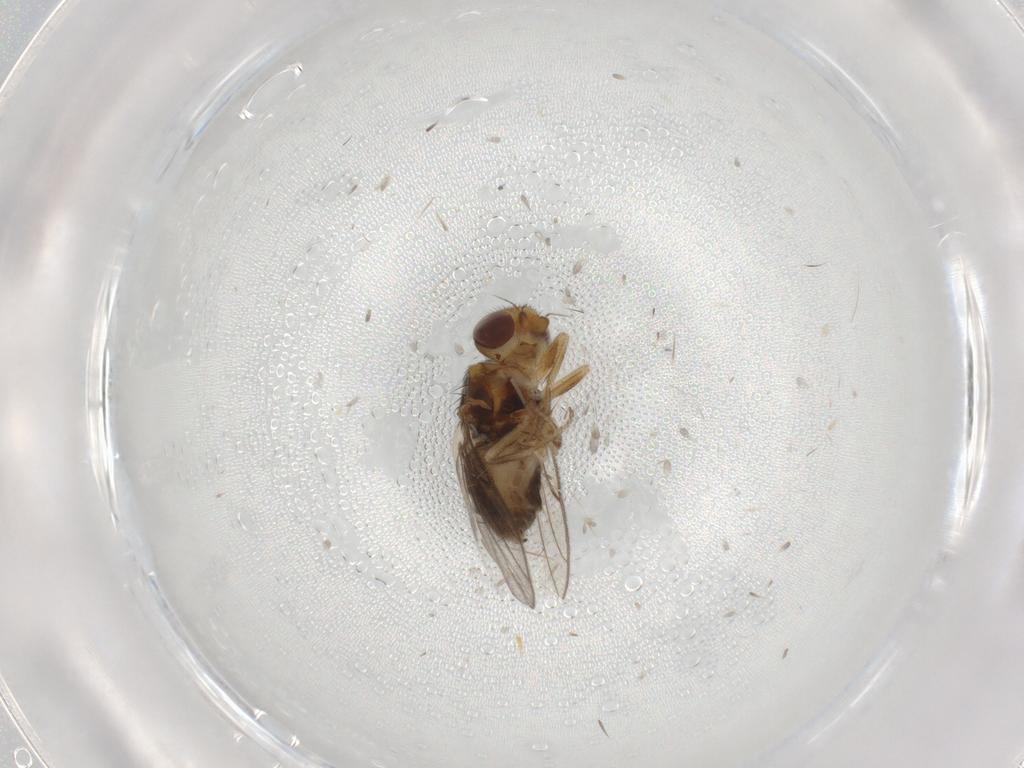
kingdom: Animalia
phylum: Arthropoda
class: Insecta
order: Diptera
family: Chloropidae
